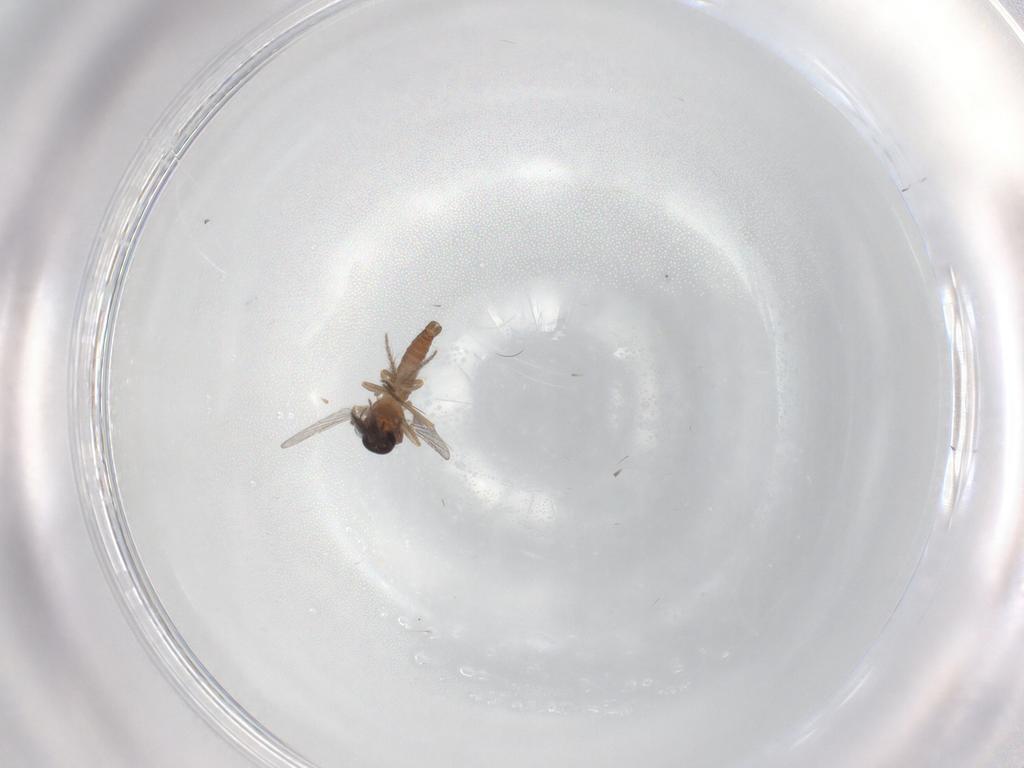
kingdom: Animalia
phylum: Arthropoda
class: Insecta
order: Diptera
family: Ceratopogonidae
